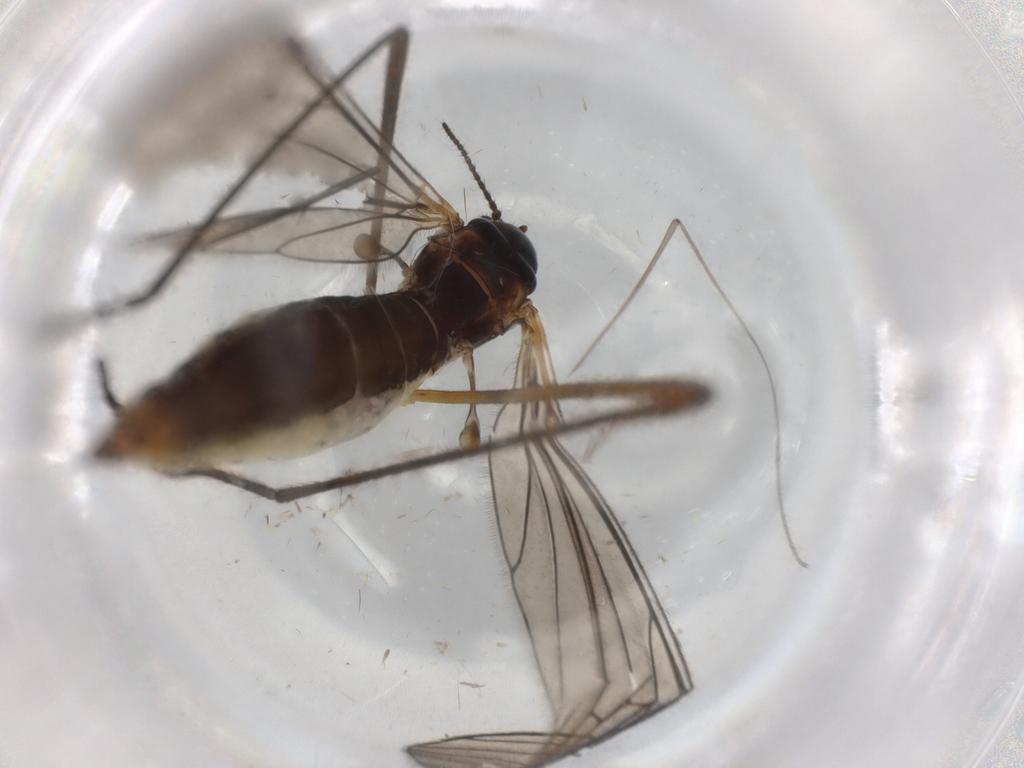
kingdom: Animalia
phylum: Arthropoda
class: Insecta
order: Diptera
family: Limoniidae
